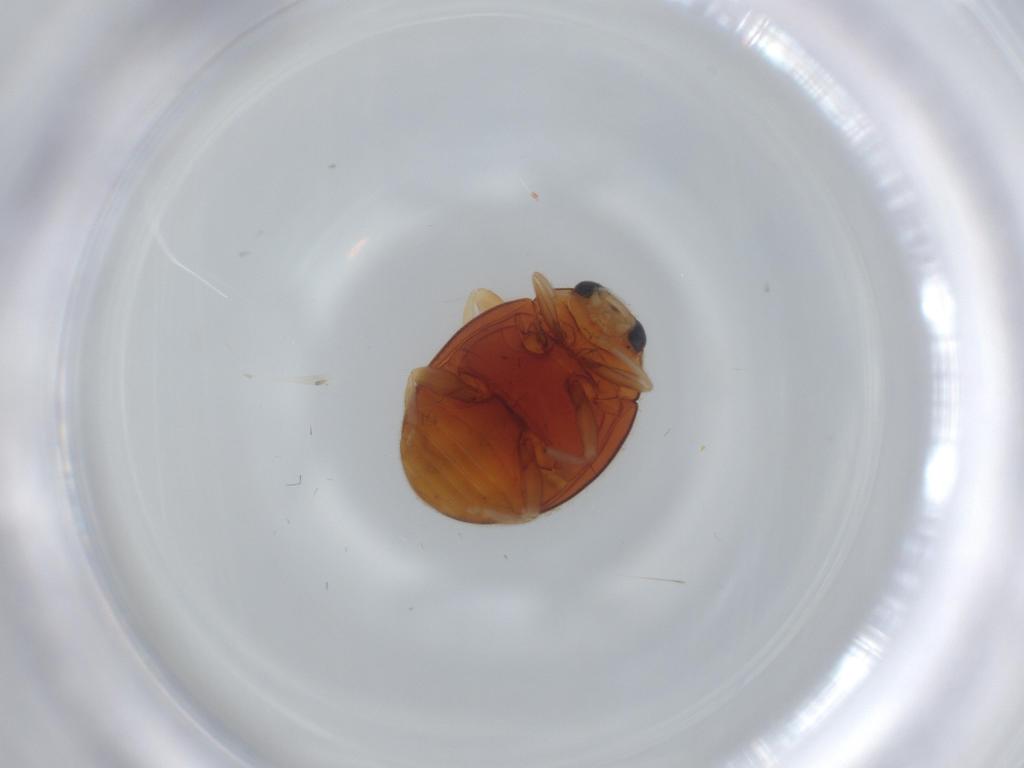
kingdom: Animalia
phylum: Arthropoda
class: Insecta
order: Coleoptera
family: Coccinellidae
